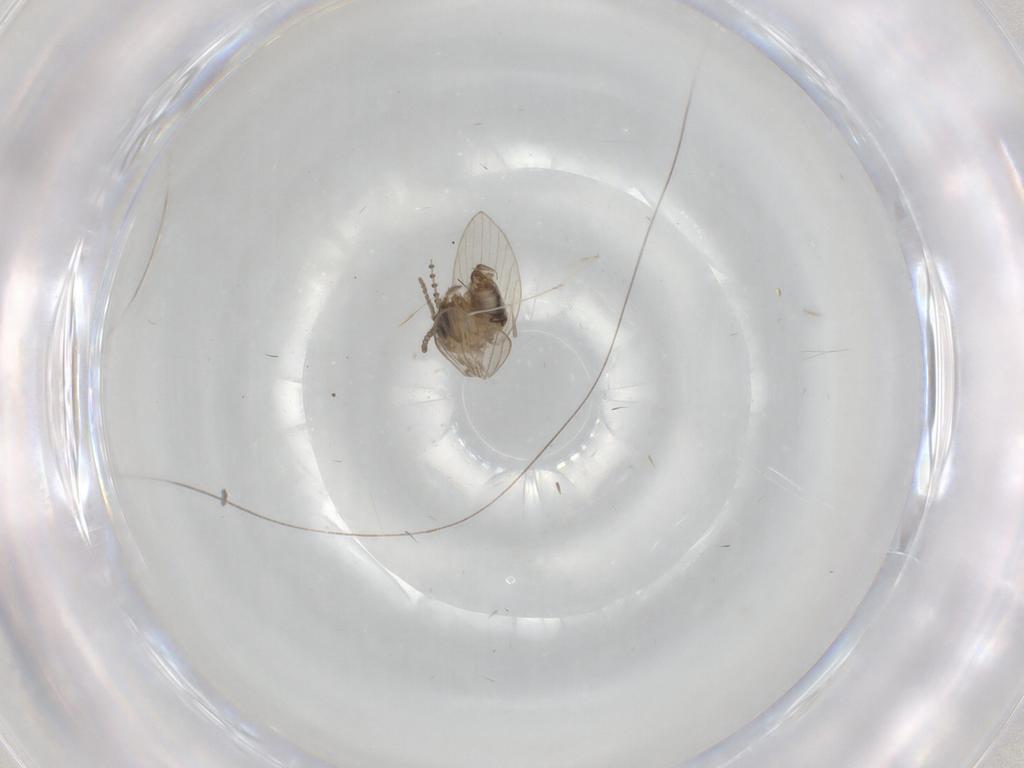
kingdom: Animalia
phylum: Arthropoda
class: Insecta
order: Diptera
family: Psychodidae
